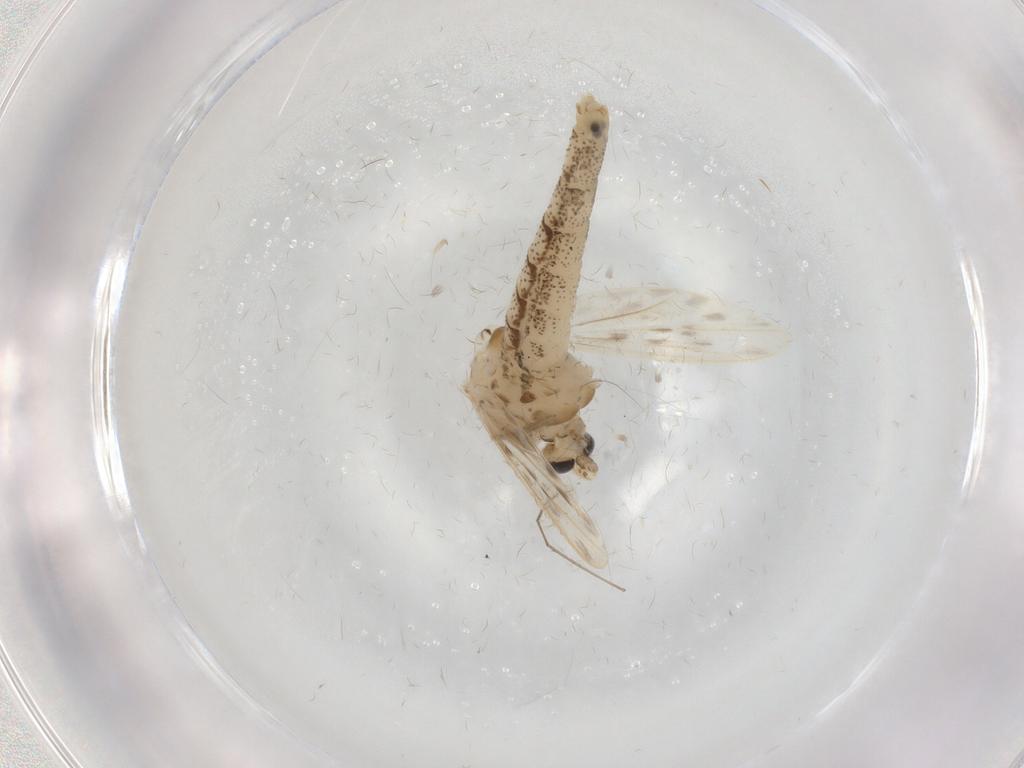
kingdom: Animalia
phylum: Arthropoda
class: Insecta
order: Diptera
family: Chaoboridae
